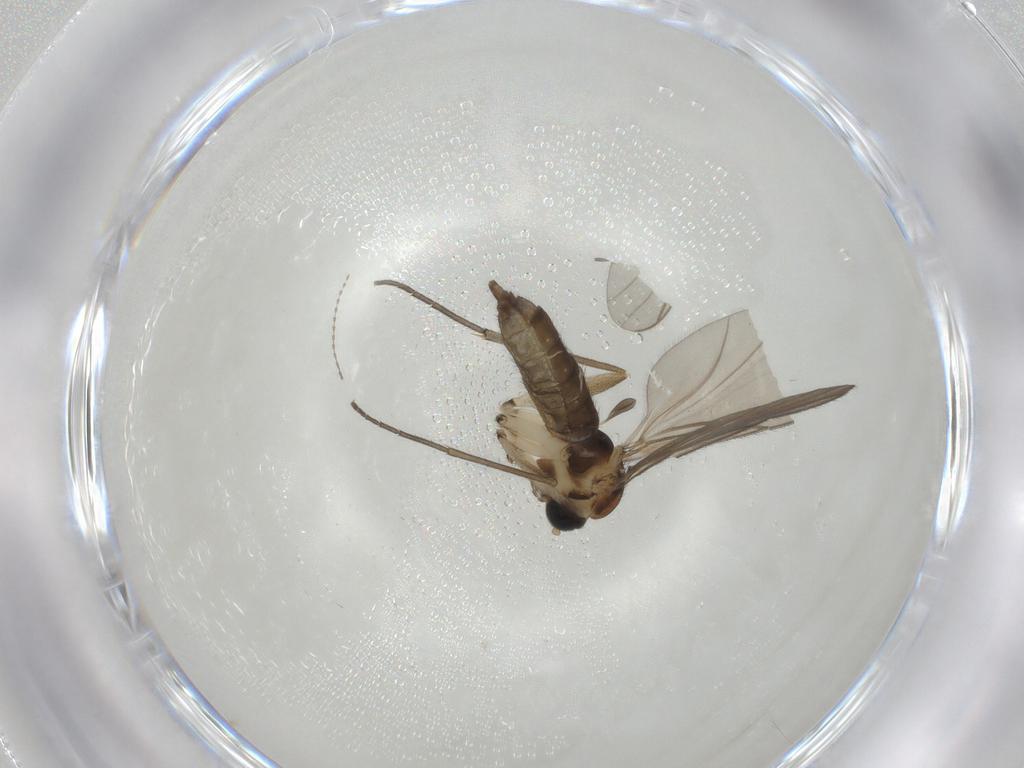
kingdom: Animalia
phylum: Arthropoda
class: Insecta
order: Diptera
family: Sciaridae
